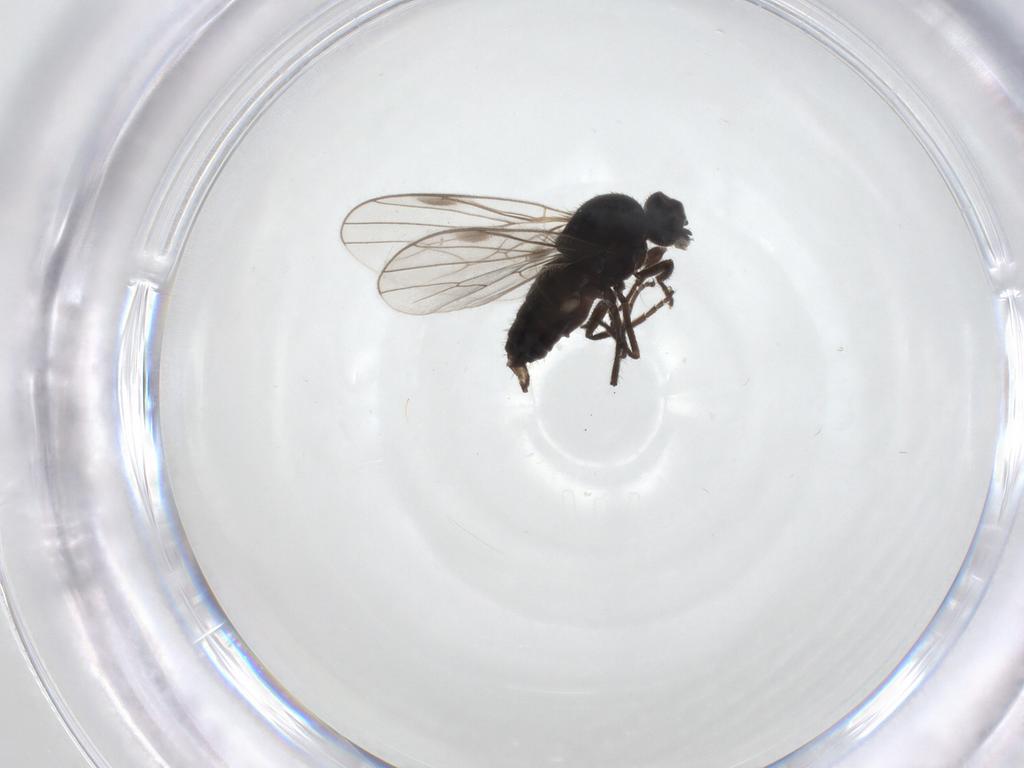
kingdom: Animalia
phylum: Arthropoda
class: Insecta
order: Diptera
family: Hybotidae
